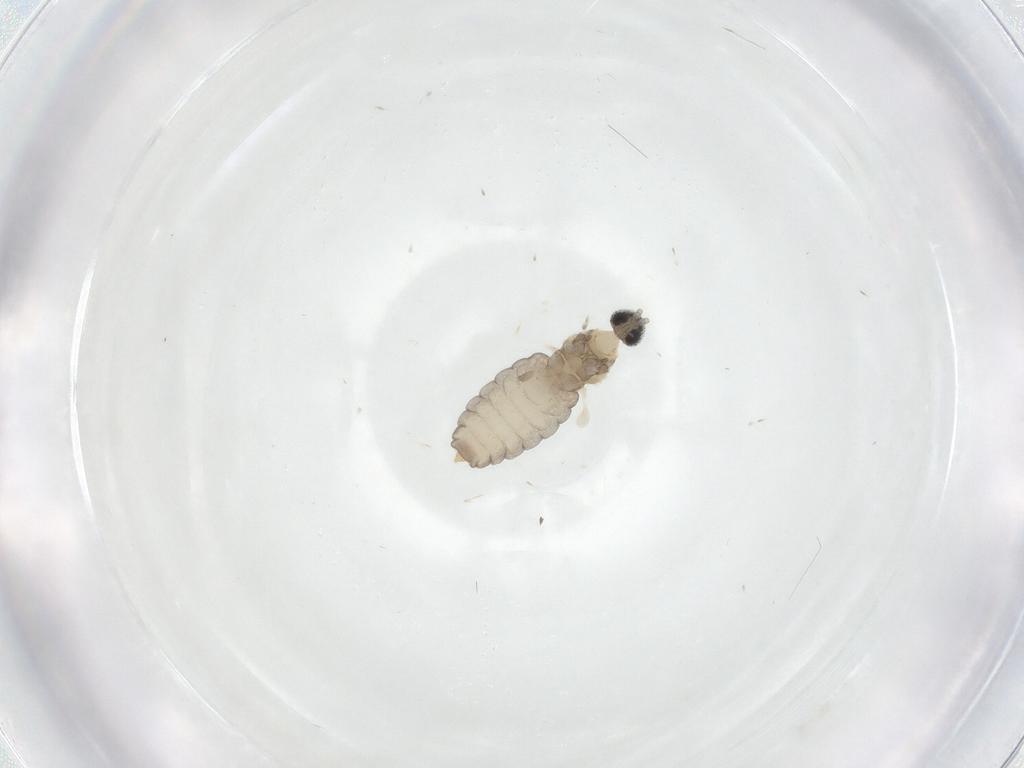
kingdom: Animalia
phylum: Arthropoda
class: Insecta
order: Diptera
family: Cecidomyiidae
